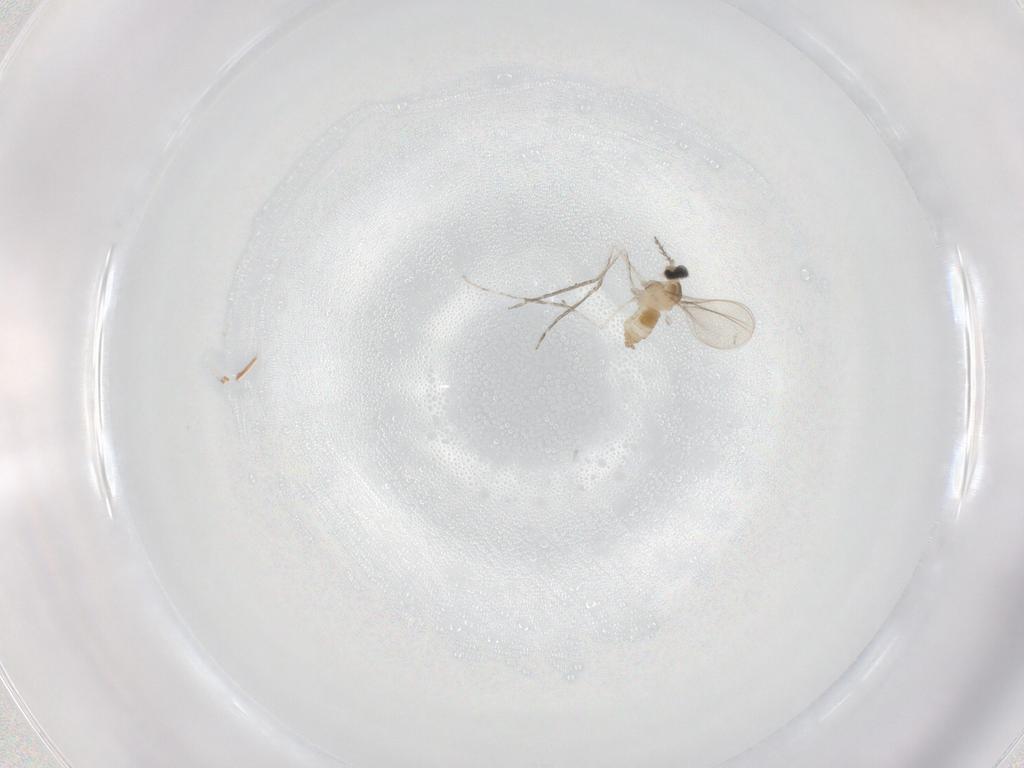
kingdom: Animalia
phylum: Arthropoda
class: Insecta
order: Diptera
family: Cecidomyiidae
